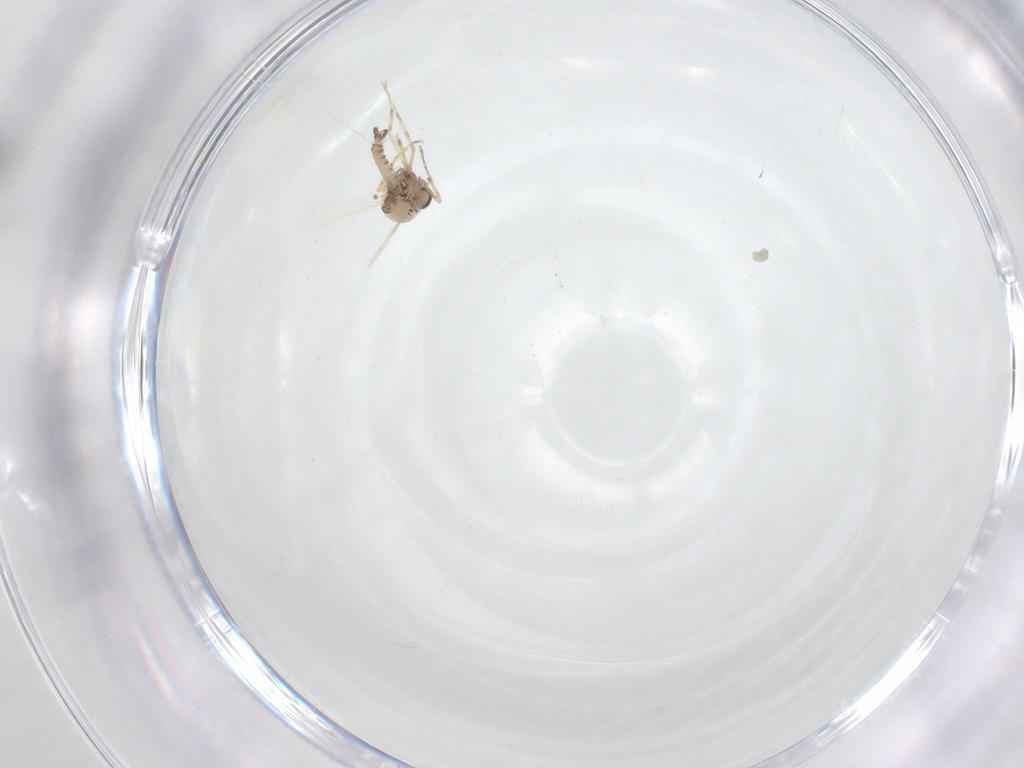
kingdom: Animalia
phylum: Arthropoda
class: Insecta
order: Diptera
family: Ceratopogonidae
